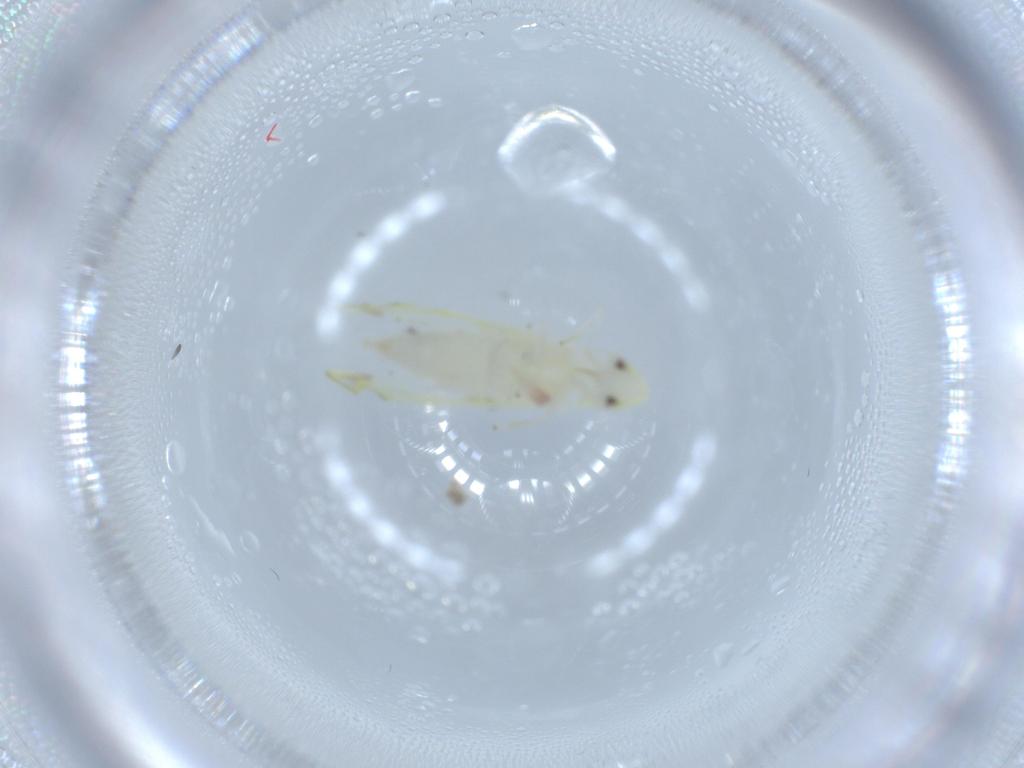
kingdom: Animalia
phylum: Arthropoda
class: Insecta
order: Hemiptera
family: Cicadellidae
